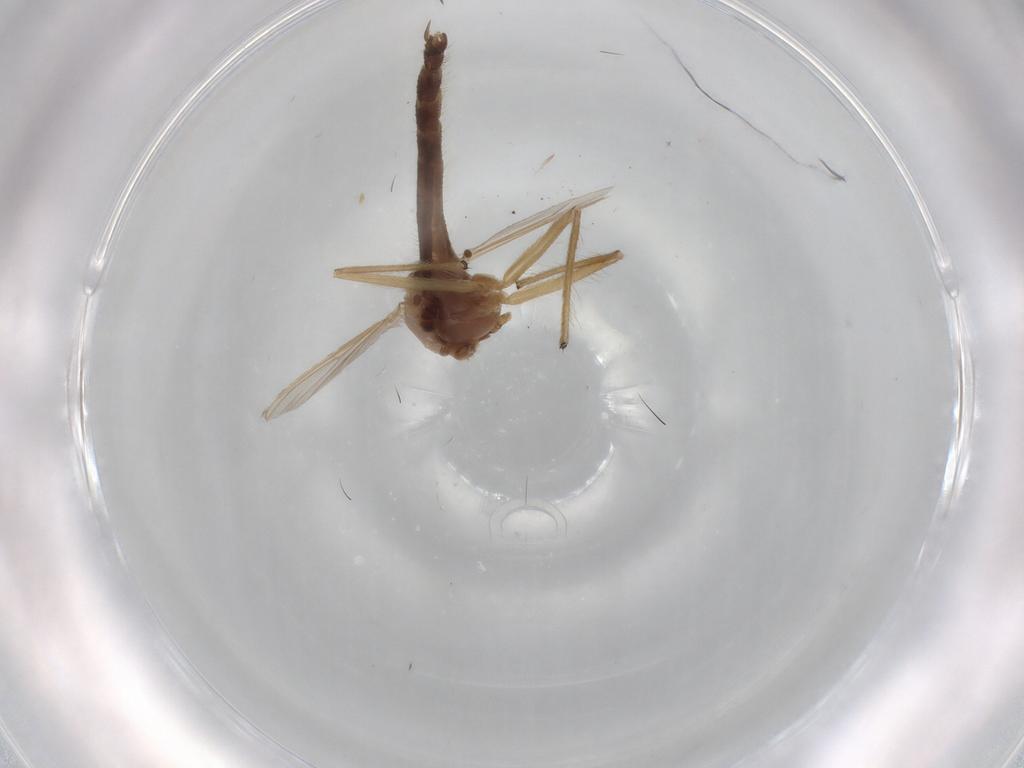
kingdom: Animalia
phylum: Arthropoda
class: Insecta
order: Diptera
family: Chironomidae
